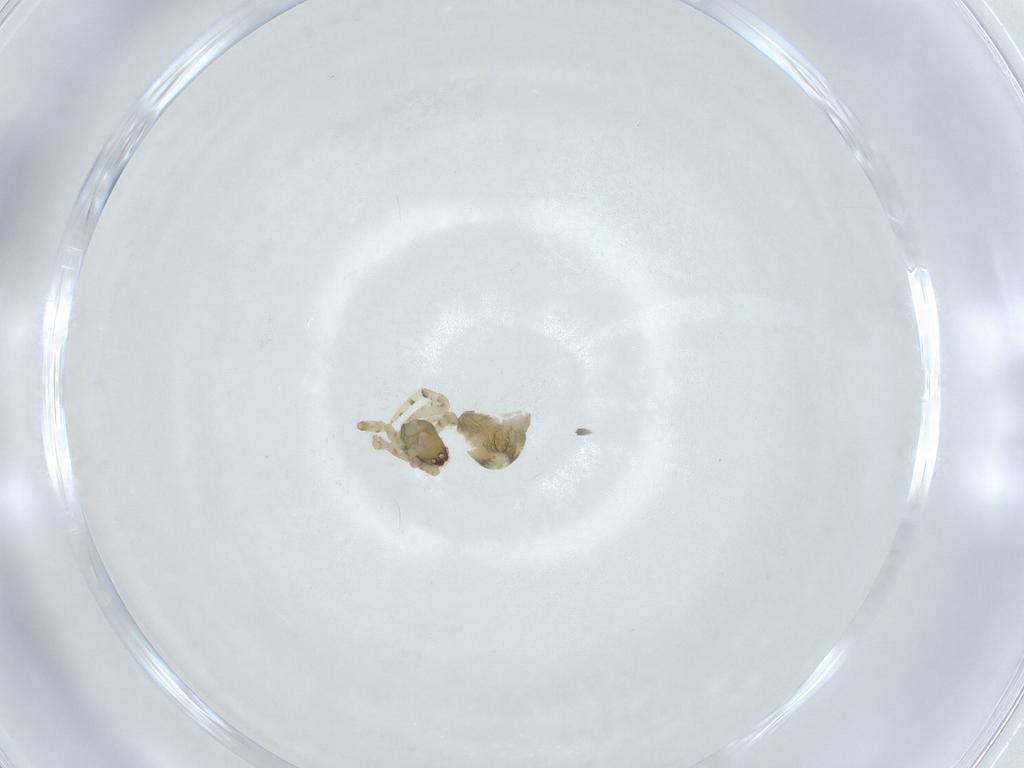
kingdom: Animalia
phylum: Arthropoda
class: Arachnida
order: Araneae
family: Theridiidae
